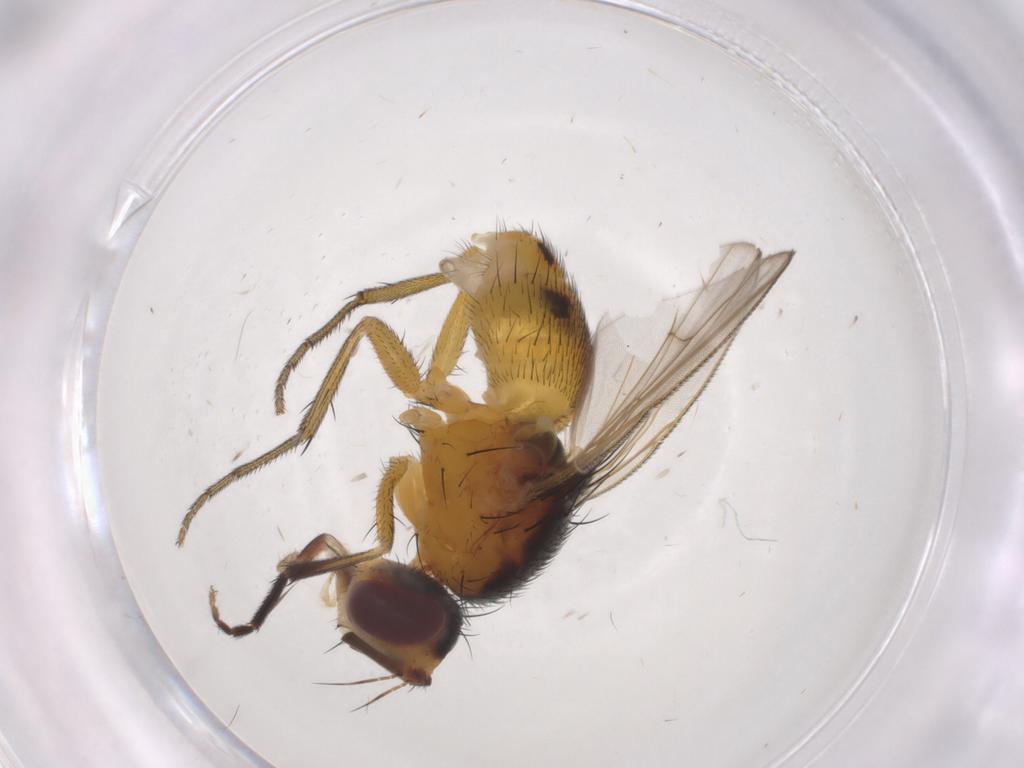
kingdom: Animalia
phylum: Arthropoda
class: Insecta
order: Diptera
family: Muscidae
